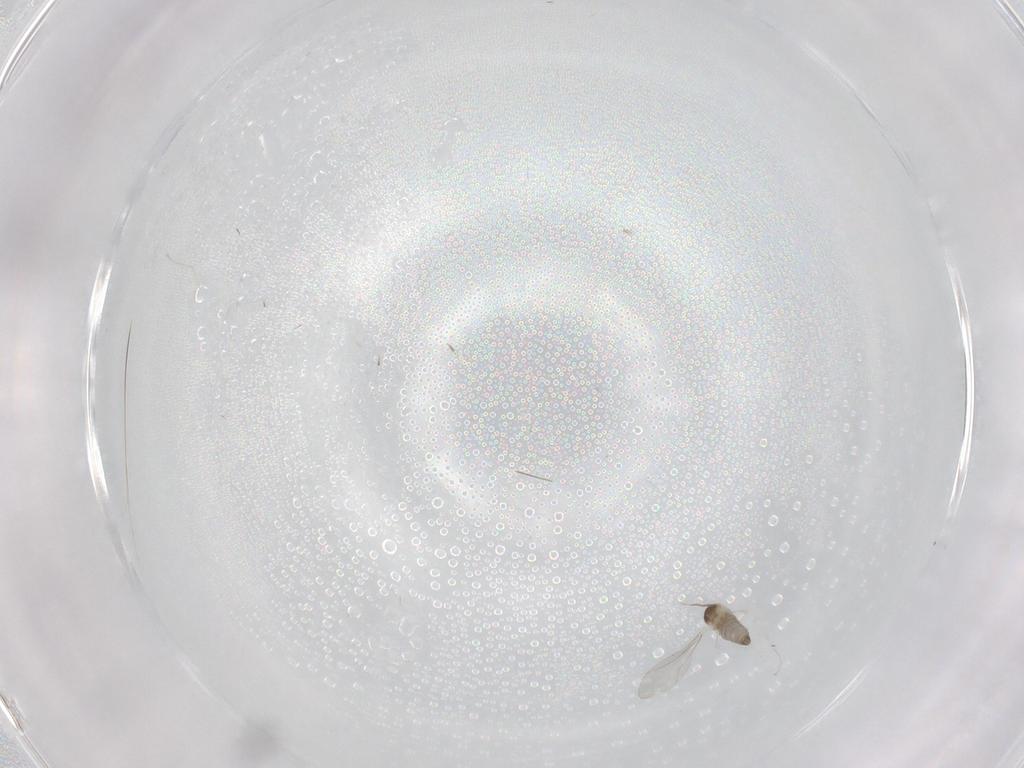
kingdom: Animalia
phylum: Arthropoda
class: Insecta
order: Diptera
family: Cecidomyiidae
